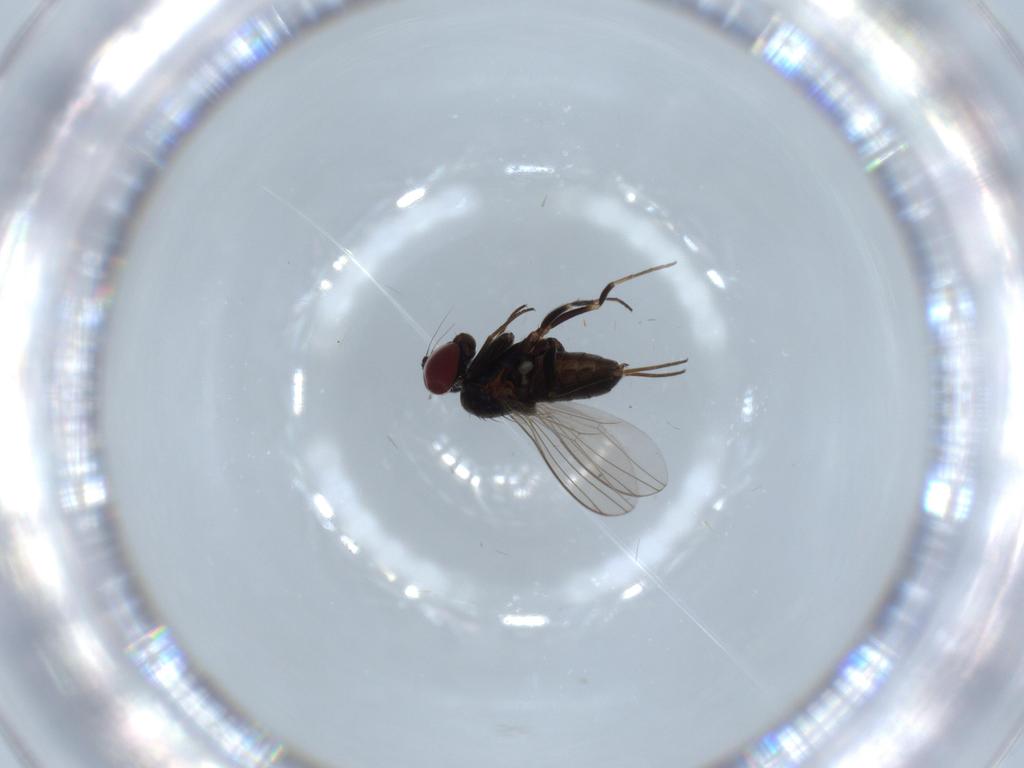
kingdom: Animalia
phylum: Arthropoda
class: Insecta
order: Diptera
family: Dolichopodidae
